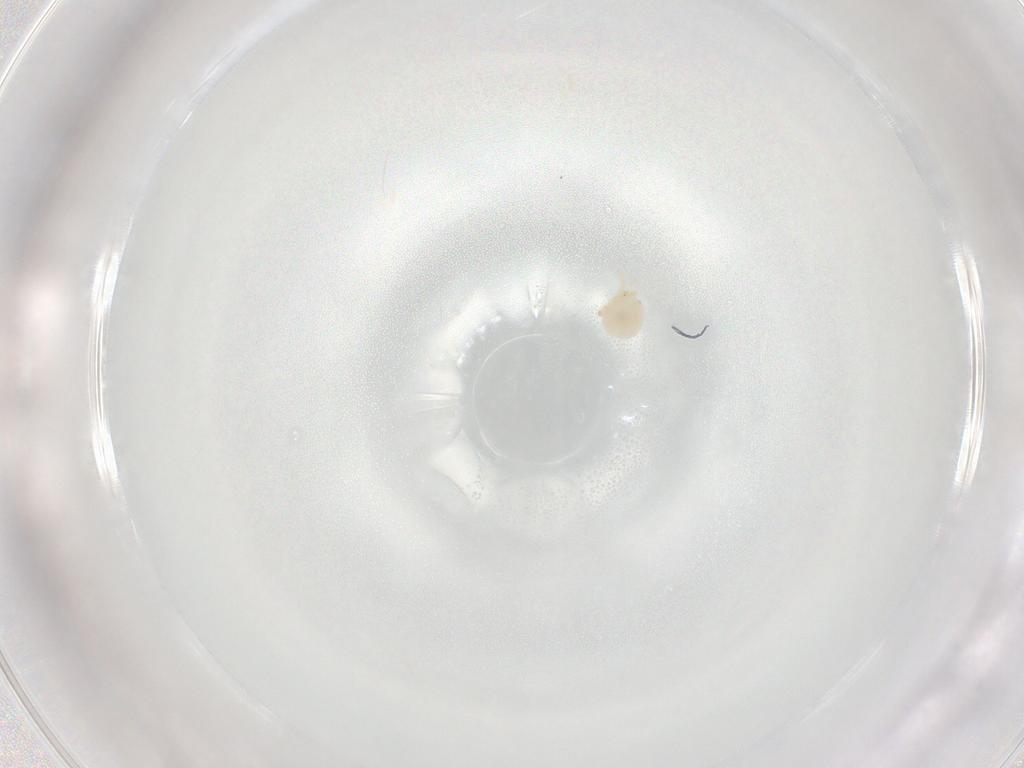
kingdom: Animalia
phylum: Arthropoda
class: Arachnida
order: Trombidiformes
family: Sperchontidae
